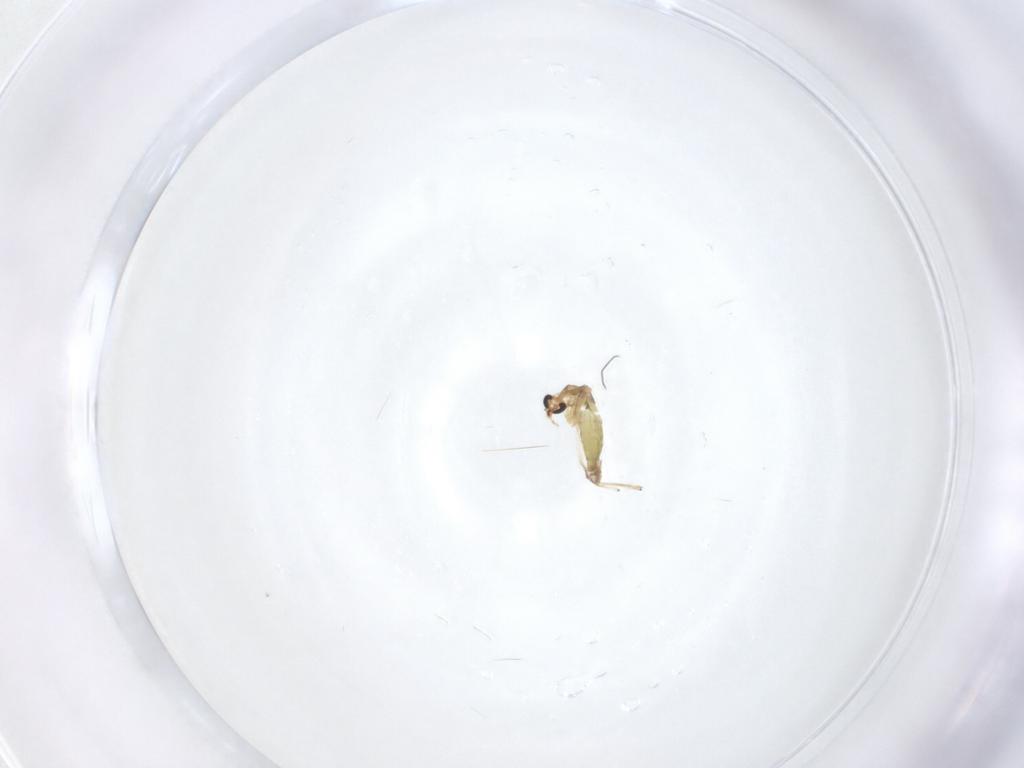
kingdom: Animalia
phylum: Arthropoda
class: Insecta
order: Diptera
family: Chironomidae
